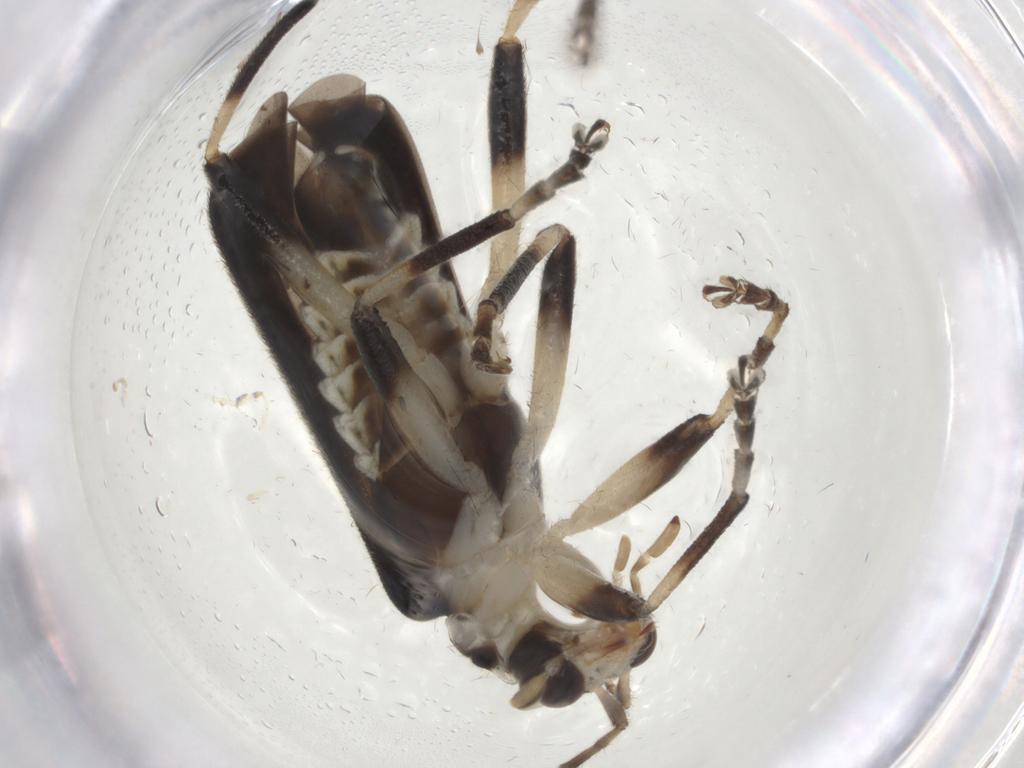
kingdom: Animalia
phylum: Arthropoda
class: Insecta
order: Coleoptera
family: Cantharidae
